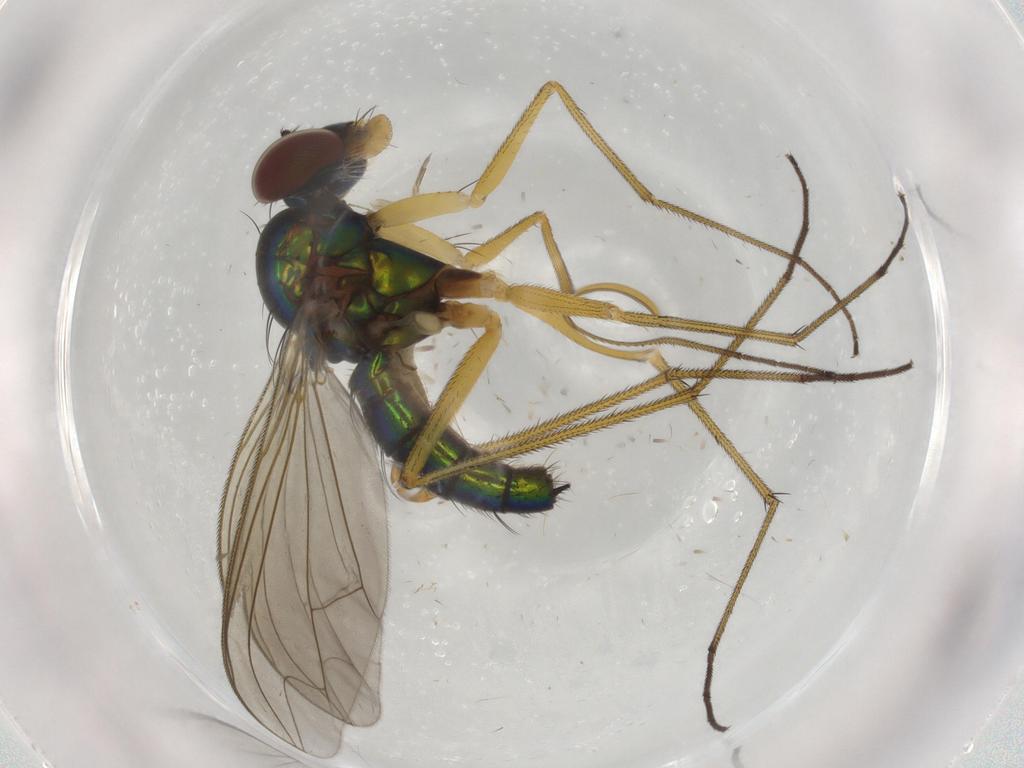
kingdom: Animalia
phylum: Arthropoda
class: Insecta
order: Diptera
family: Dolichopodidae
